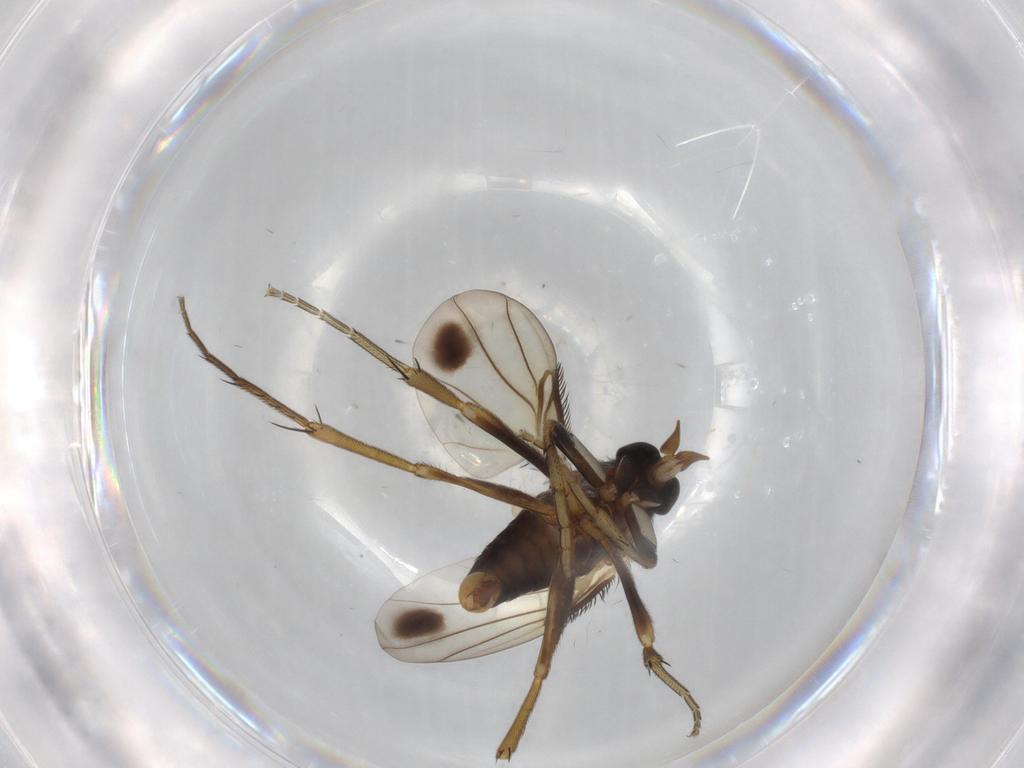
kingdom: Animalia
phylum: Arthropoda
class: Insecta
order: Diptera
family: Phoridae
